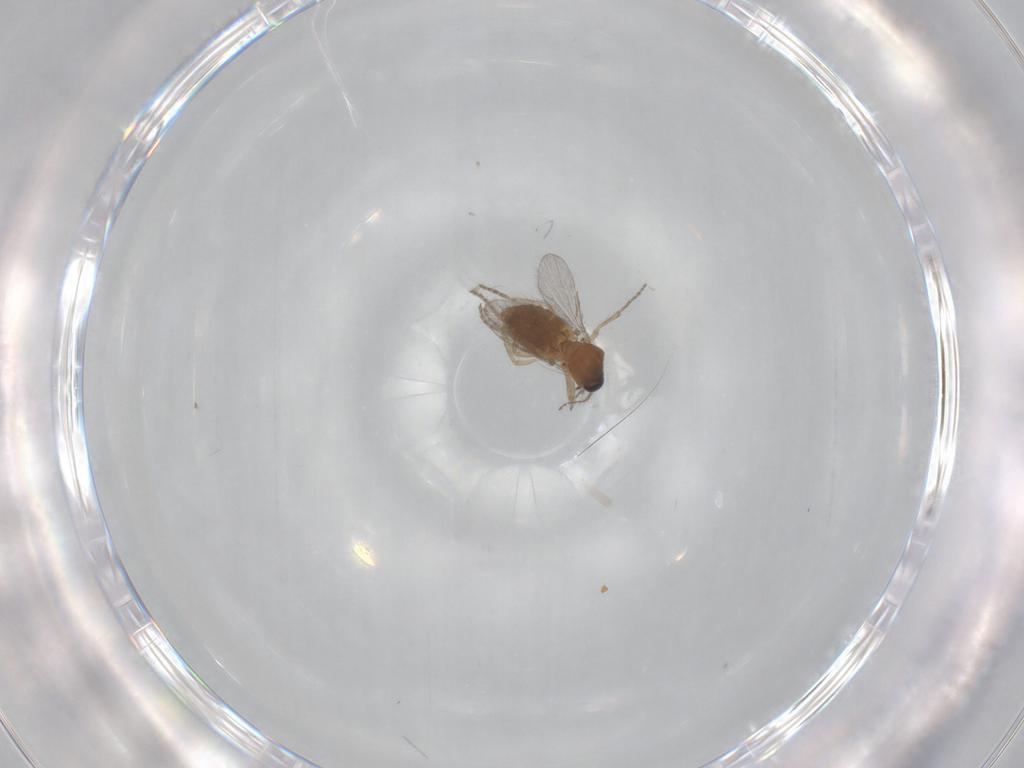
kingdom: Animalia
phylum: Arthropoda
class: Insecta
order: Diptera
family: Ceratopogonidae
